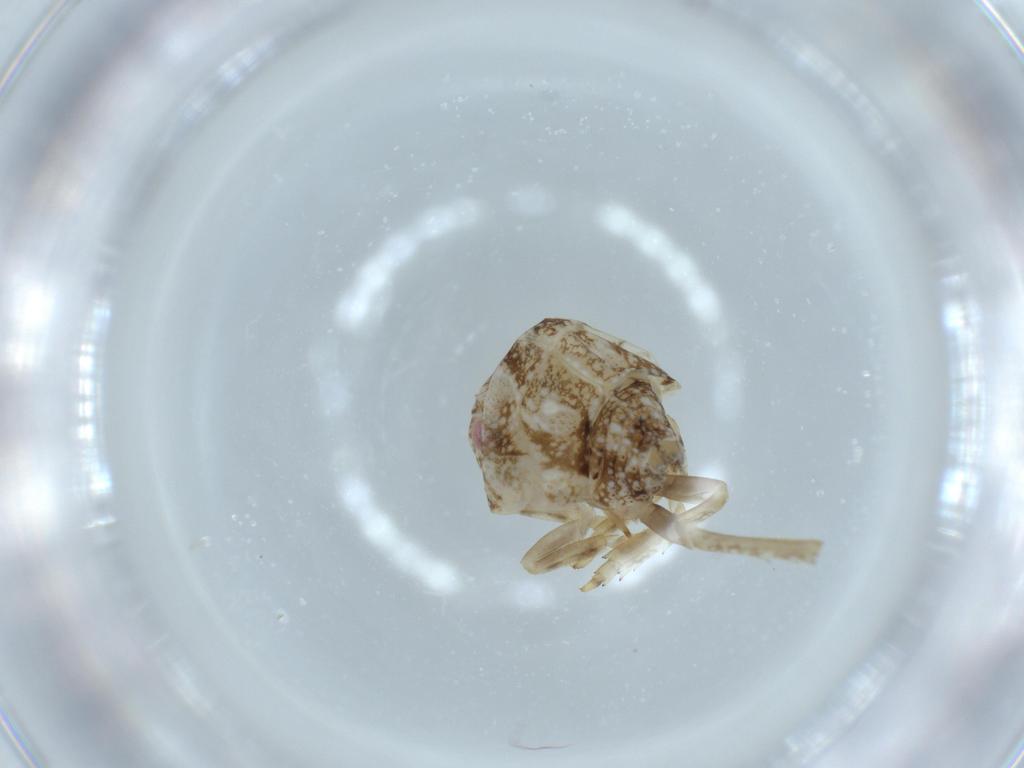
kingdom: Animalia
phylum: Arthropoda
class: Insecta
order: Hemiptera
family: Acanaloniidae
